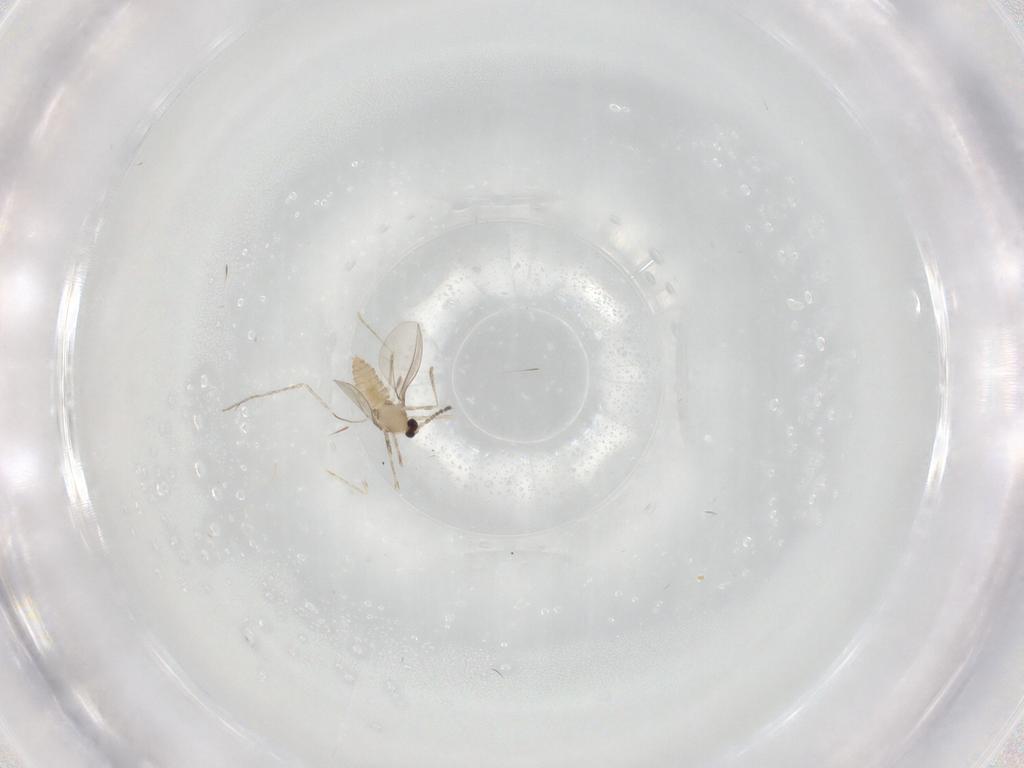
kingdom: Animalia
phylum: Arthropoda
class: Insecta
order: Diptera
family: Cecidomyiidae
